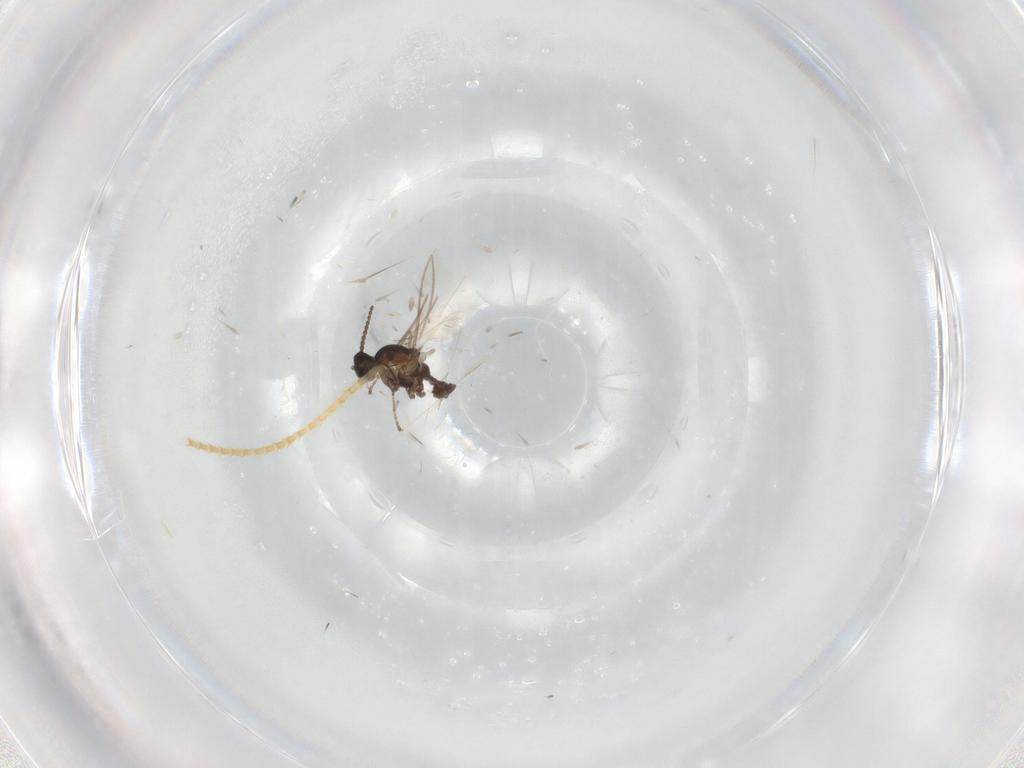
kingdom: Animalia
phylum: Arthropoda
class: Insecta
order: Diptera
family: Cecidomyiidae
